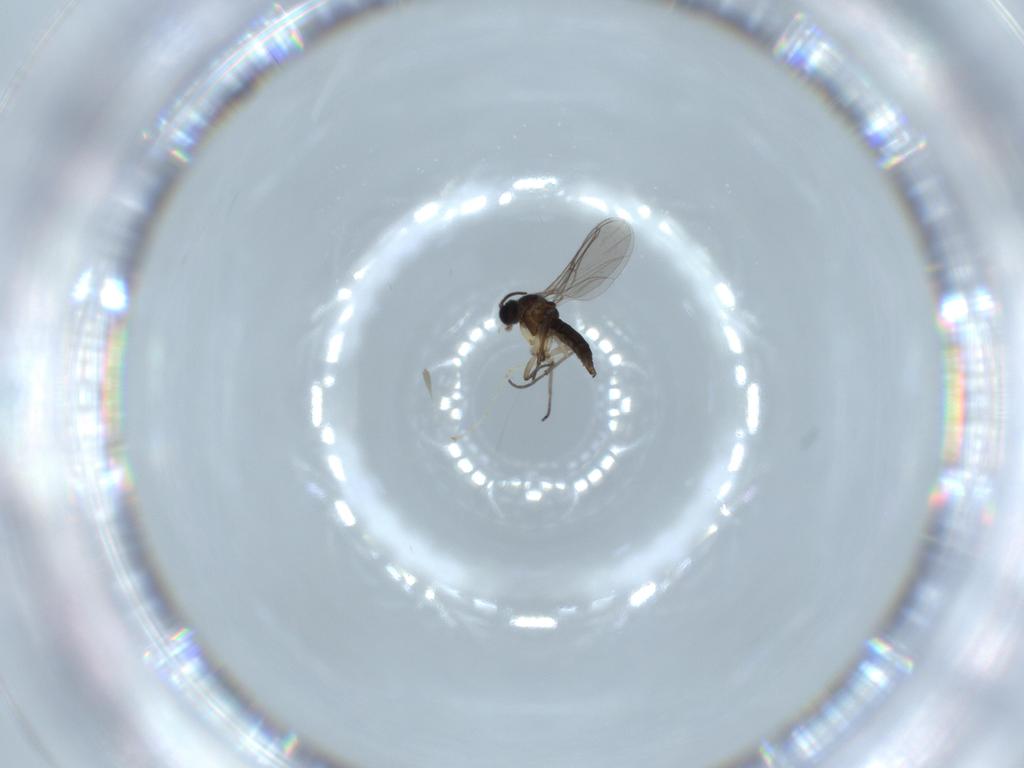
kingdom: Animalia
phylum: Arthropoda
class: Insecta
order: Diptera
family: Sciaridae
